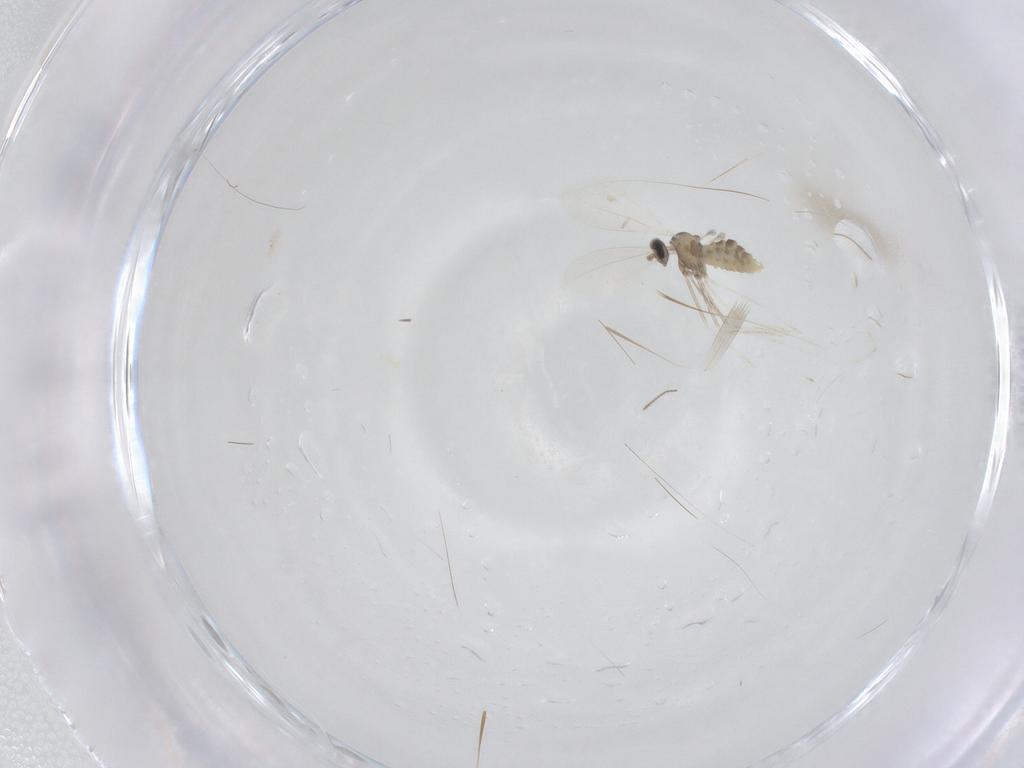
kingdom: Animalia
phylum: Arthropoda
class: Insecta
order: Diptera
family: Cecidomyiidae
